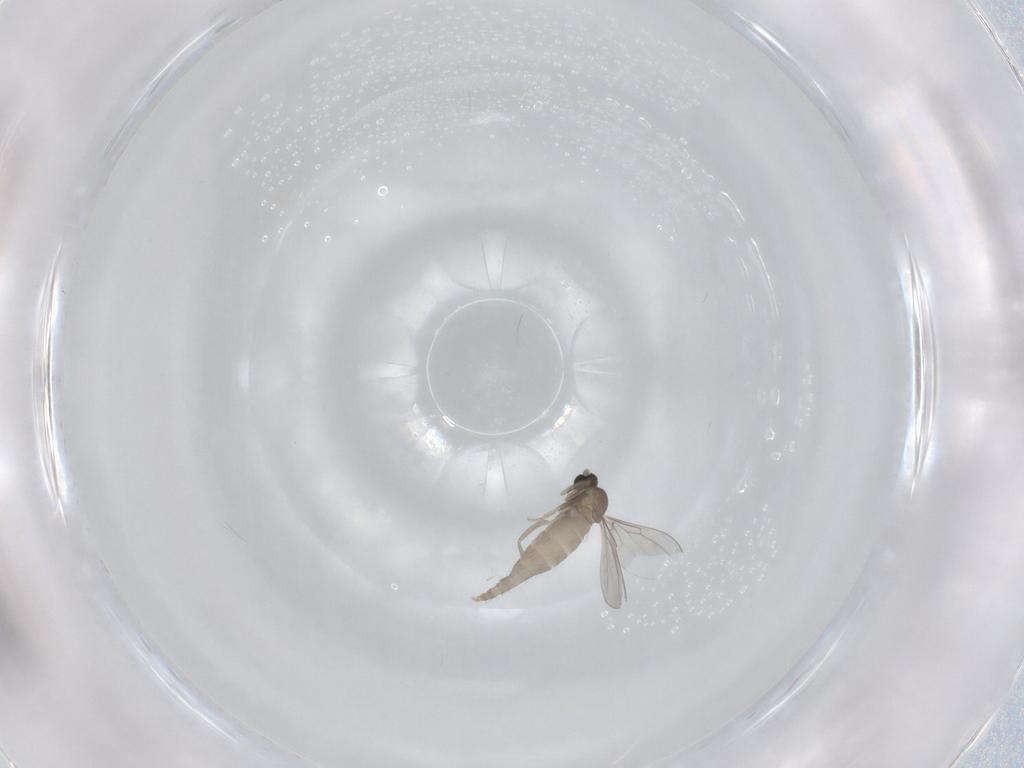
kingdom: Animalia
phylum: Arthropoda
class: Insecta
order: Diptera
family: Cecidomyiidae
